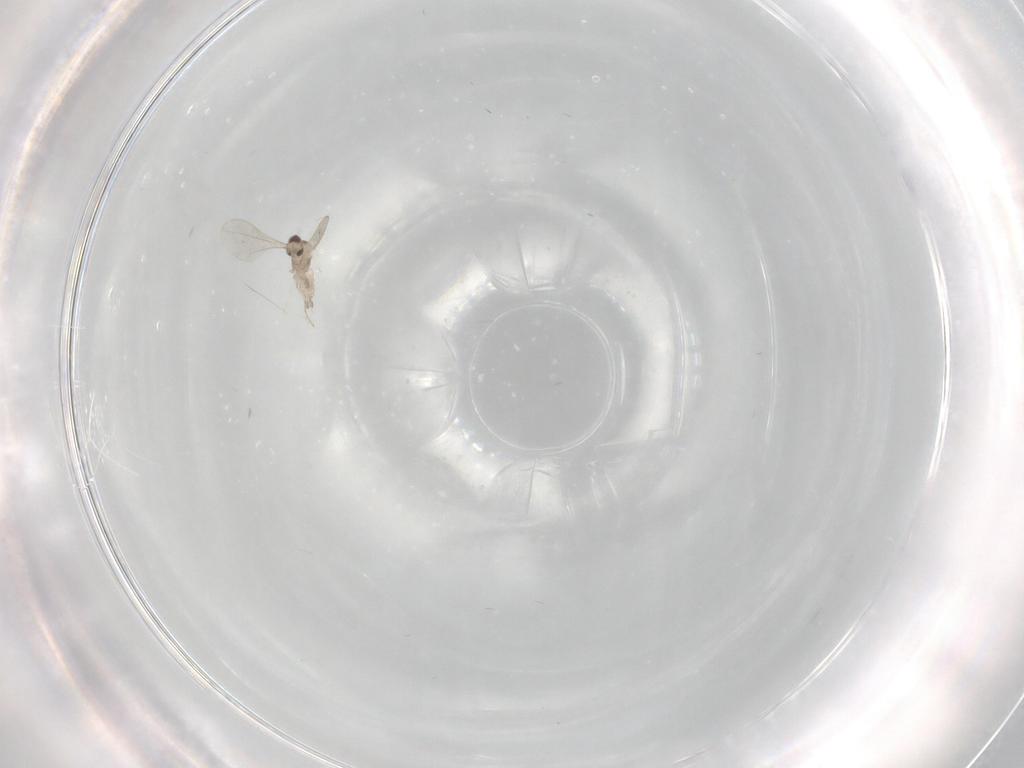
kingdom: Animalia
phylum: Arthropoda
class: Insecta
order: Diptera
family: Cecidomyiidae
